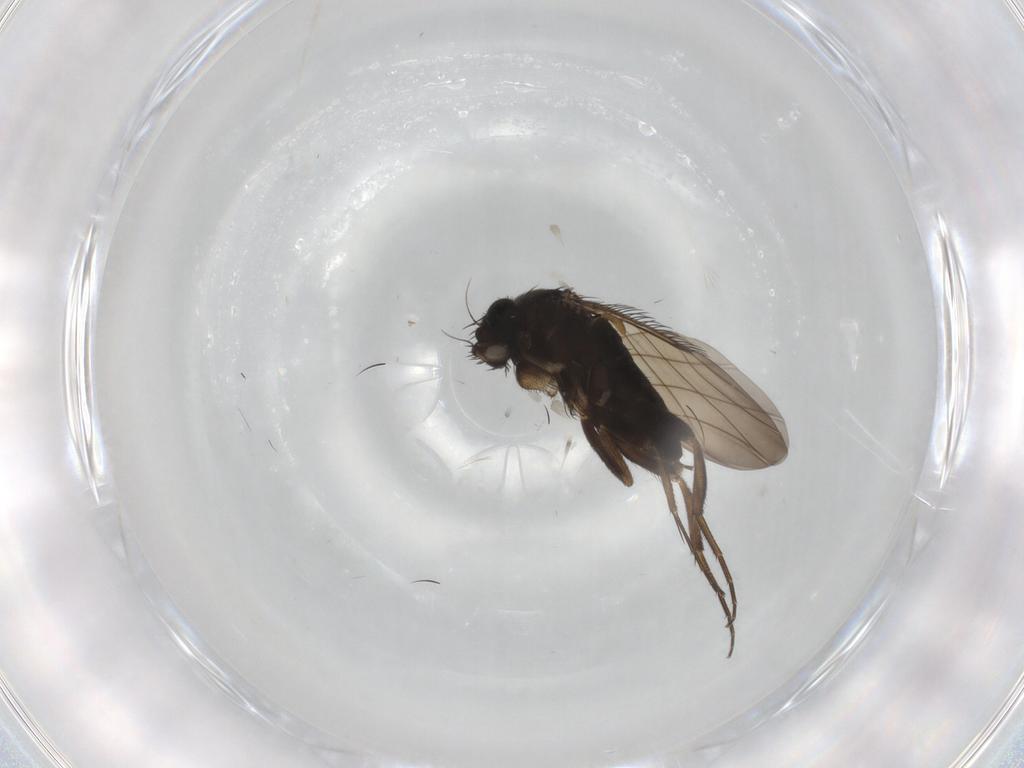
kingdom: Animalia
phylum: Arthropoda
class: Insecta
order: Diptera
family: Phoridae
